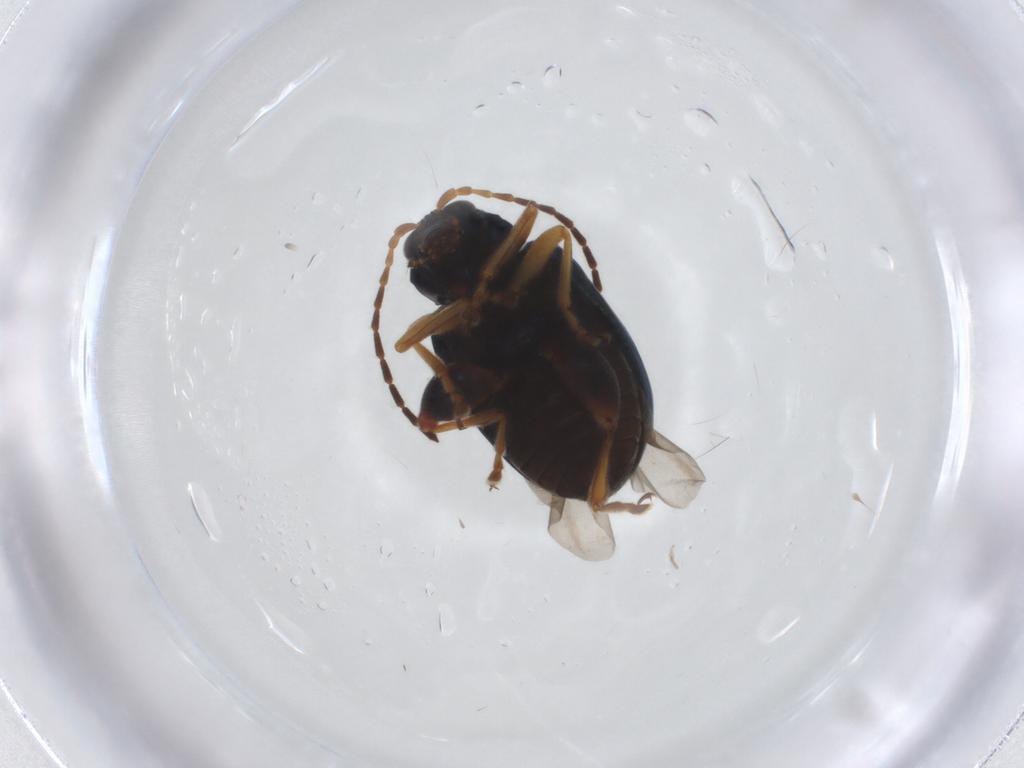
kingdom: Animalia
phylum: Arthropoda
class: Insecta
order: Coleoptera
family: Chrysomelidae
